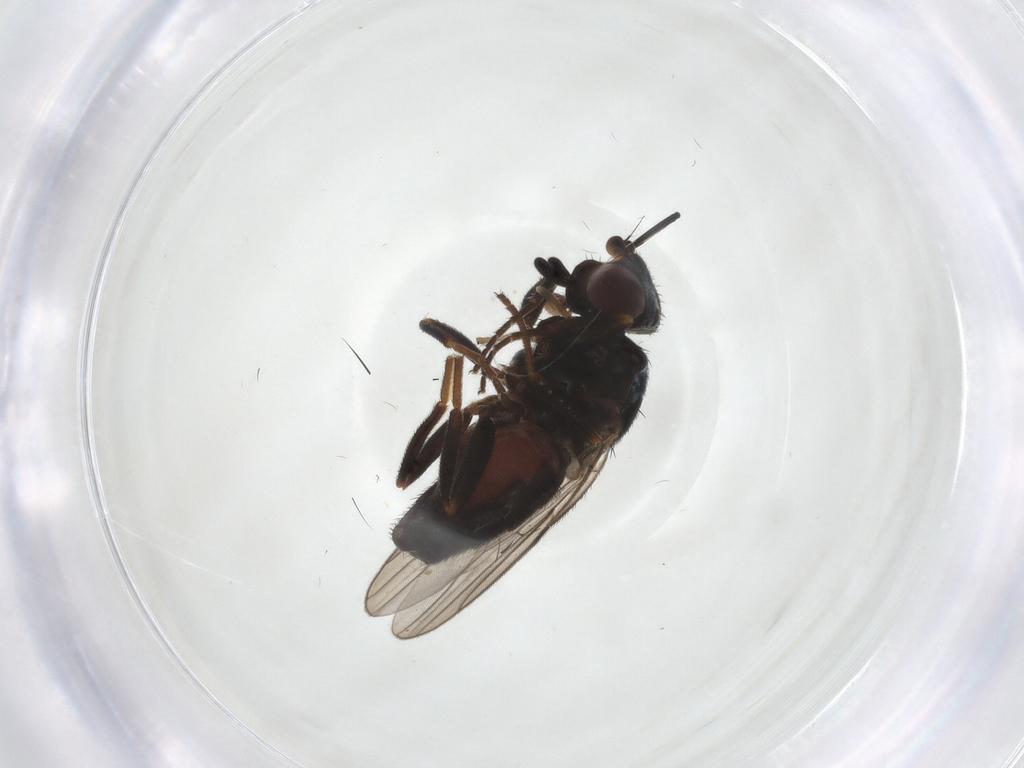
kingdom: Animalia
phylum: Arthropoda
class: Insecta
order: Diptera
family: Chloropidae
